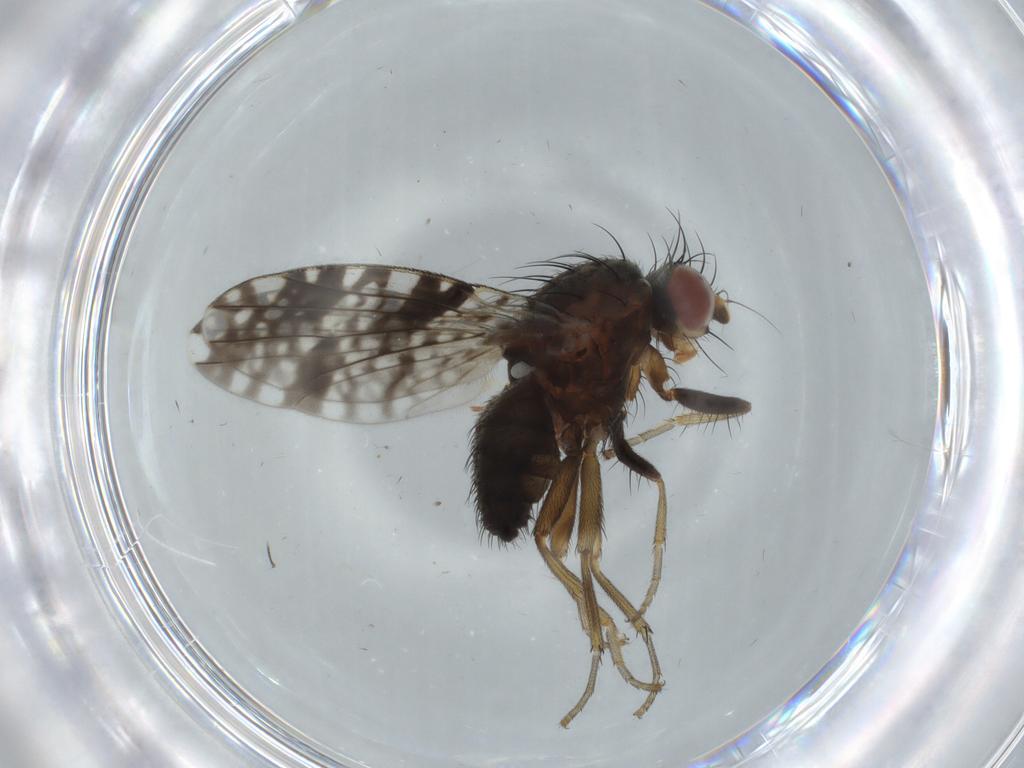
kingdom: Animalia
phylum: Arthropoda
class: Insecta
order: Diptera
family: Tephritidae
